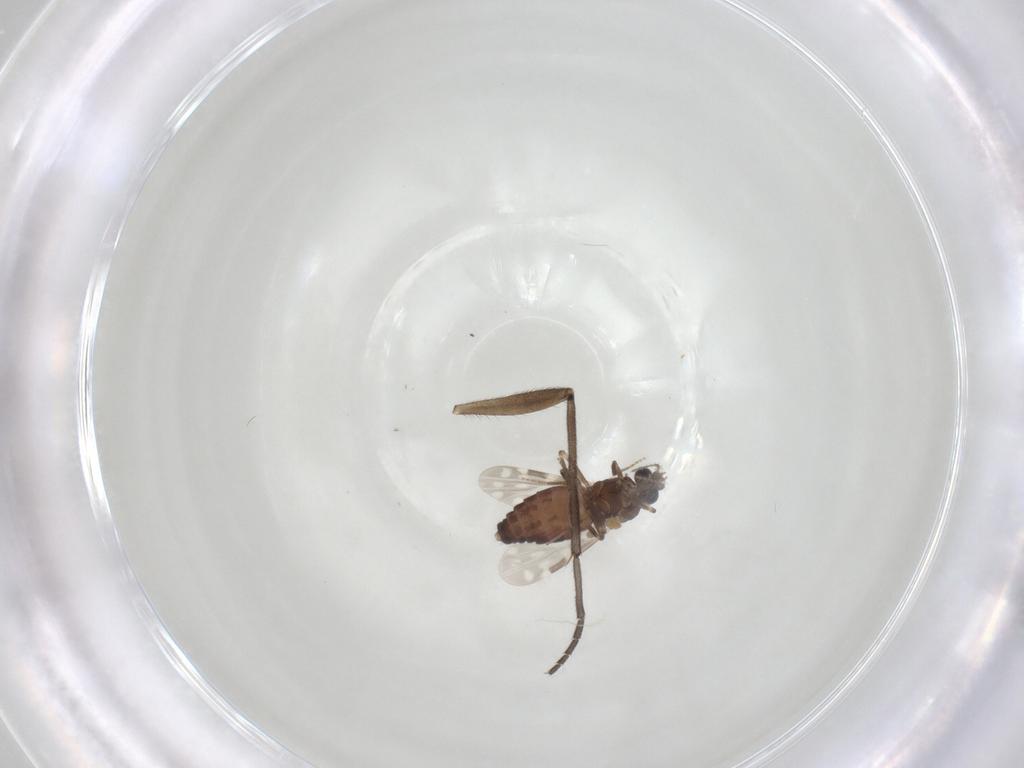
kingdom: Animalia
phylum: Arthropoda
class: Insecta
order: Diptera
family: Sciaridae
